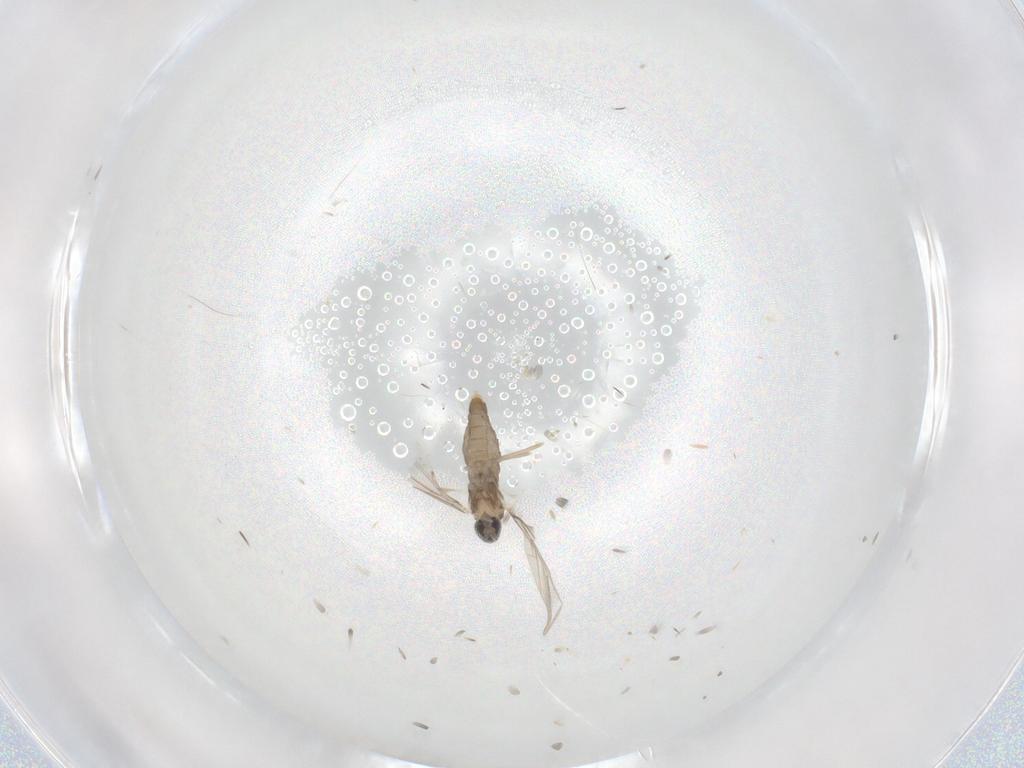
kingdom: Animalia
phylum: Arthropoda
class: Insecta
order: Diptera
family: Cecidomyiidae
